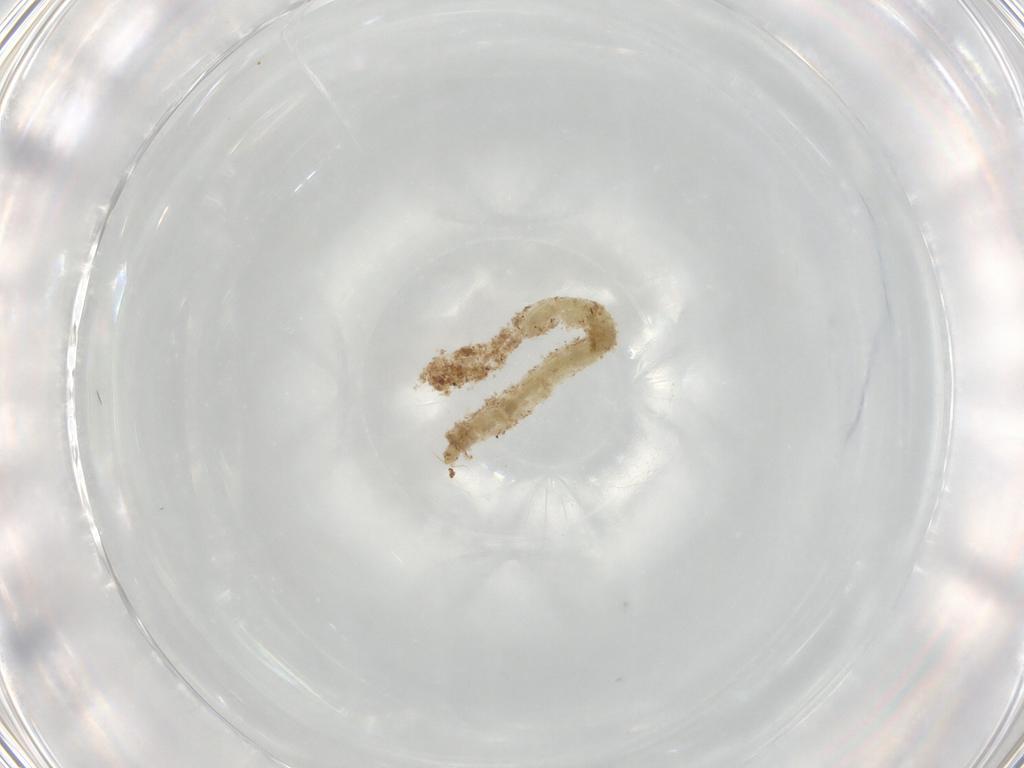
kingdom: Animalia
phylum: Arthropoda
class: Insecta
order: Diptera
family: Chironomidae
